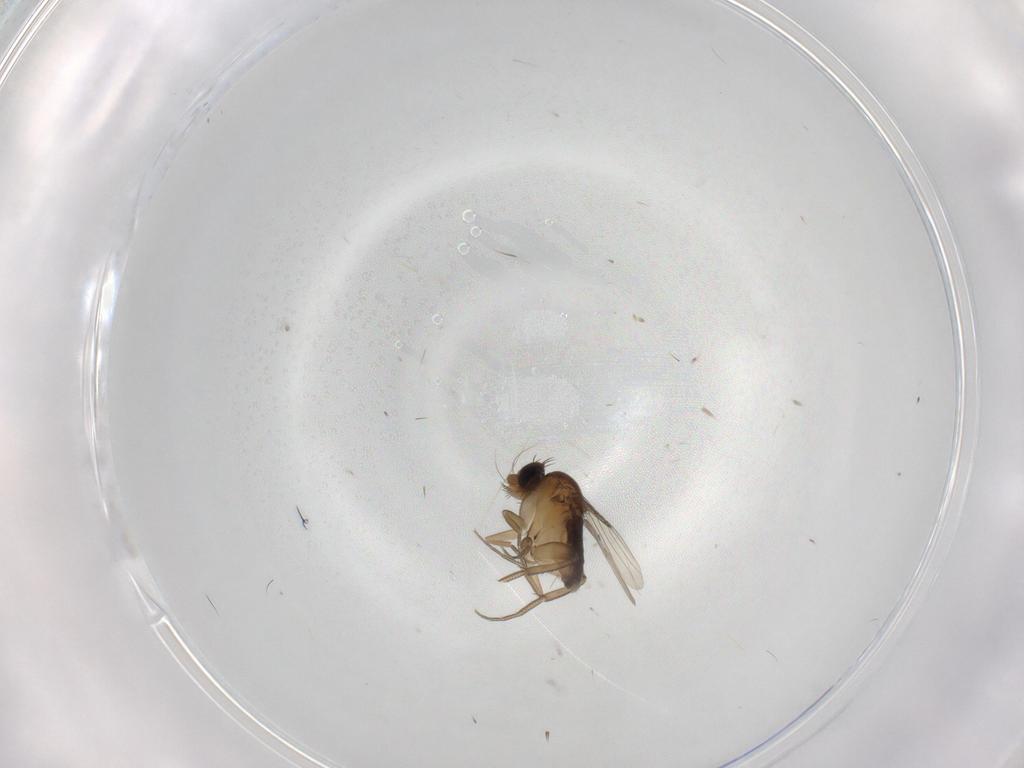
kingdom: Animalia
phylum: Arthropoda
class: Insecta
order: Diptera
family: Phoridae
